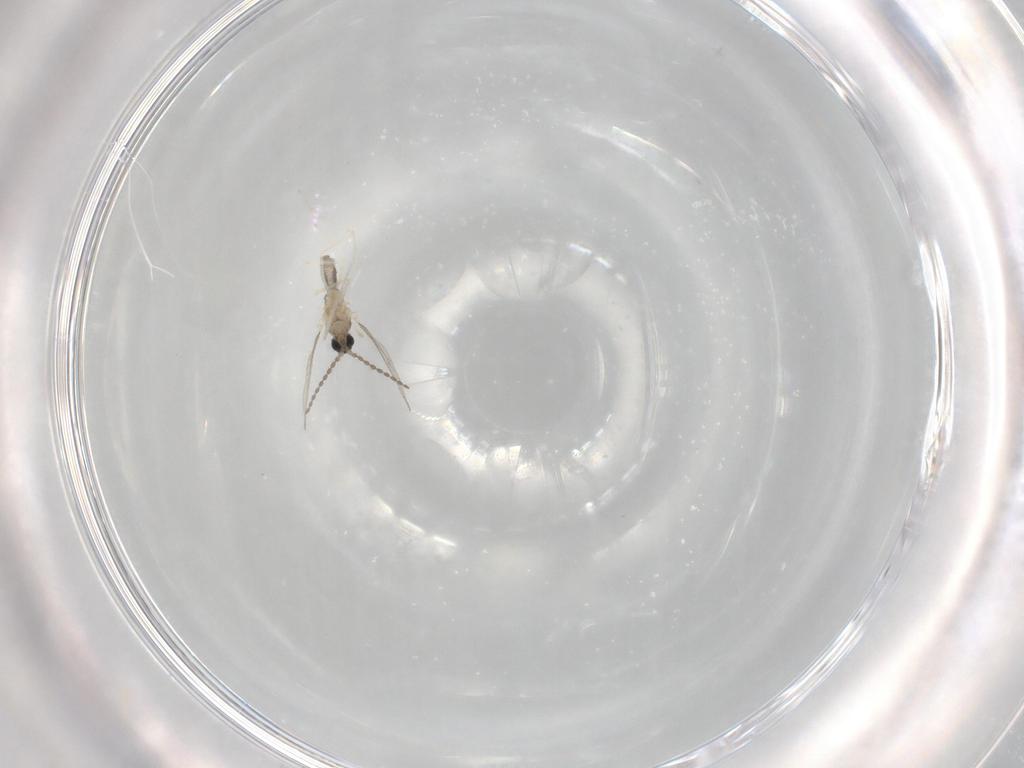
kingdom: Animalia
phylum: Arthropoda
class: Insecta
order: Diptera
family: Cecidomyiidae
